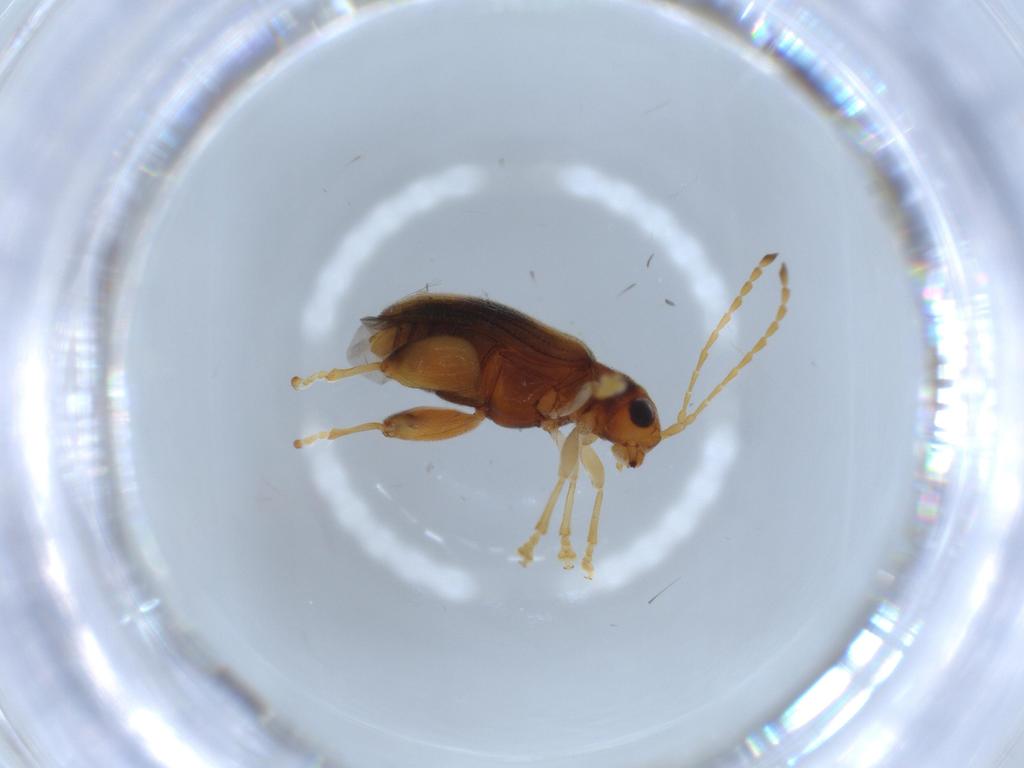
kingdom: Animalia
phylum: Arthropoda
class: Insecta
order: Coleoptera
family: Chrysomelidae
